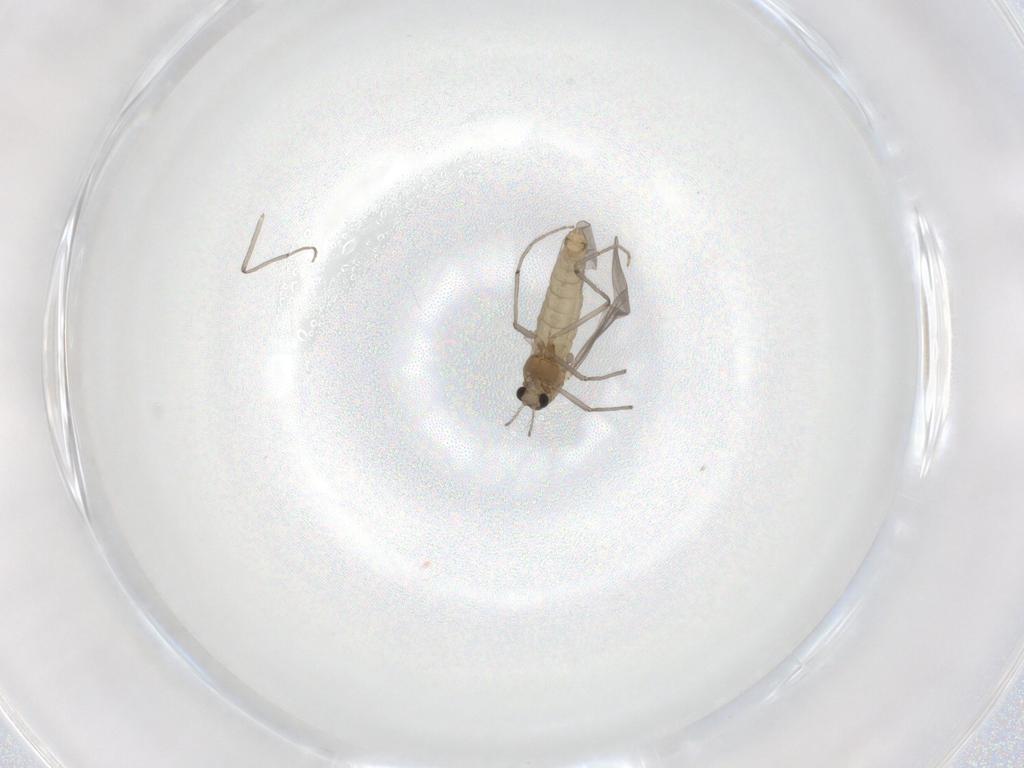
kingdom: Animalia
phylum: Arthropoda
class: Insecta
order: Diptera
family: Chironomidae
